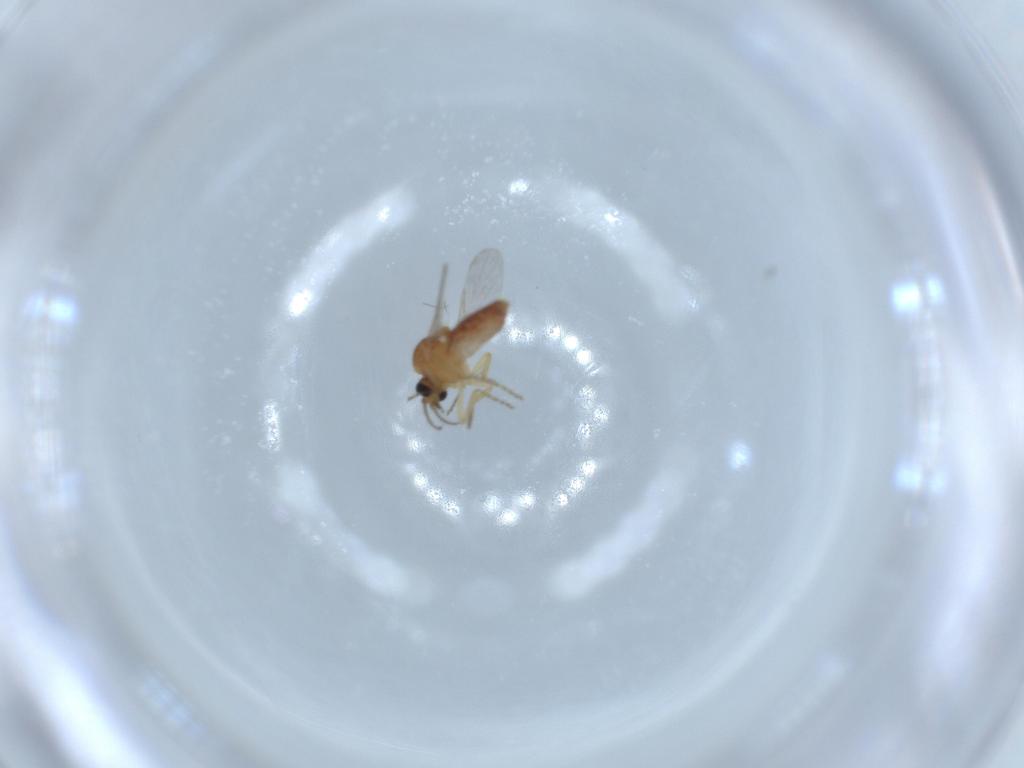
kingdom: Animalia
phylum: Arthropoda
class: Insecta
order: Diptera
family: Ceratopogonidae
